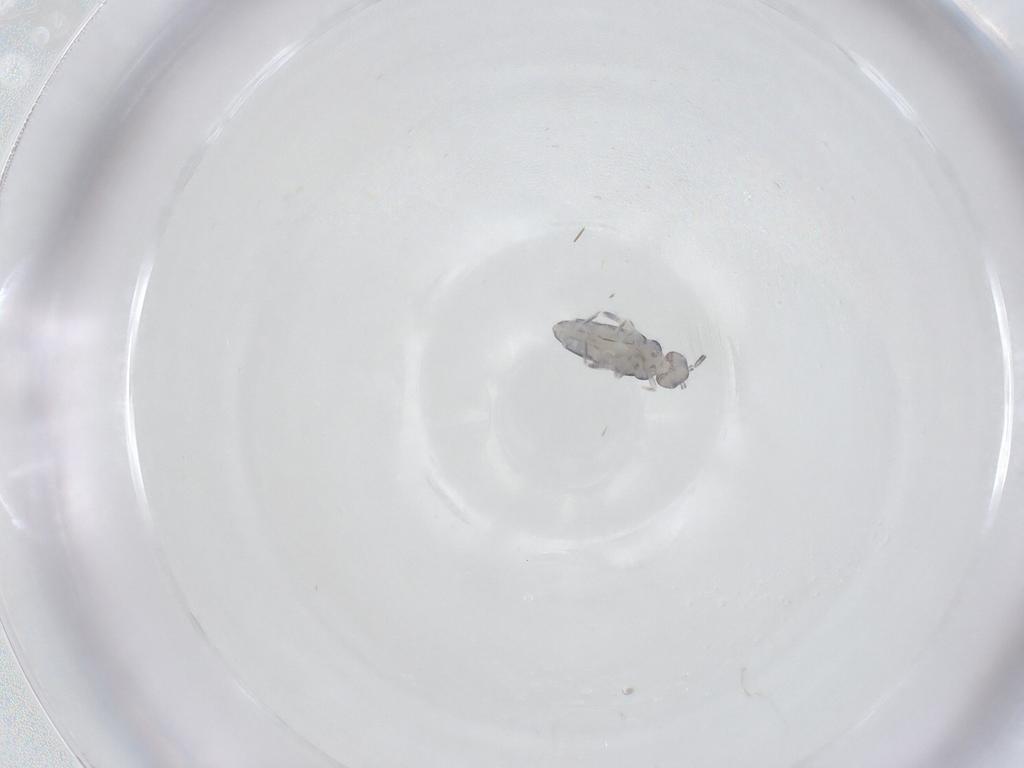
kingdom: Animalia
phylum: Arthropoda
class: Collembola
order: Entomobryomorpha
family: Entomobryidae
